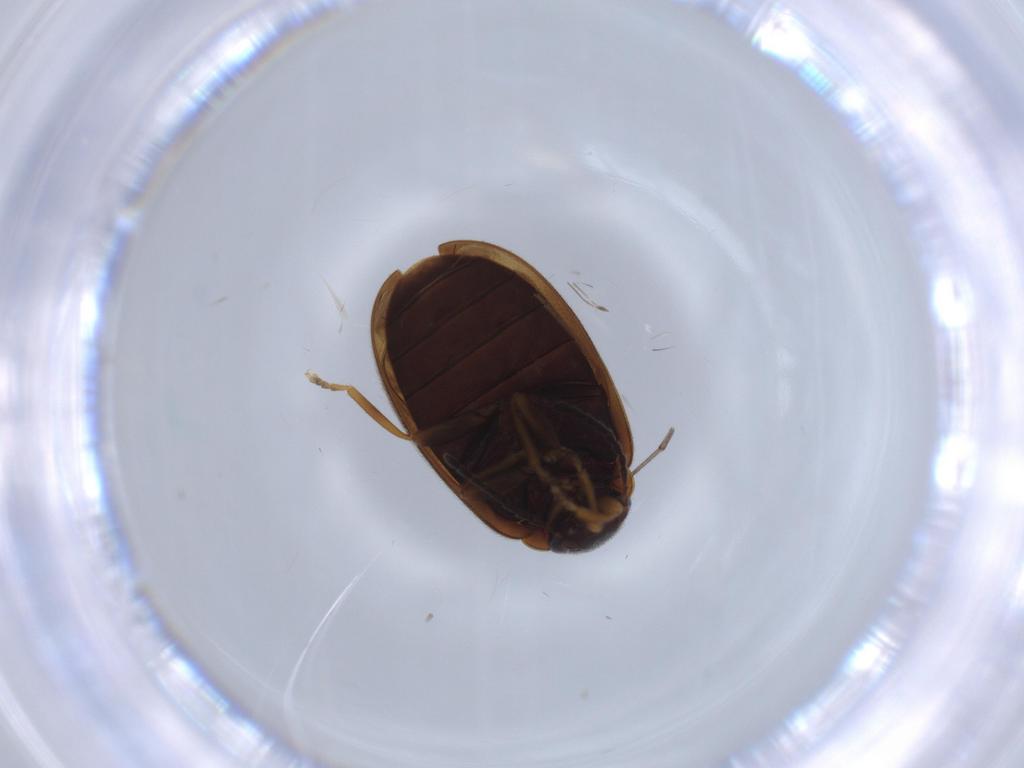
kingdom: Animalia
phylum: Arthropoda
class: Insecta
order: Coleoptera
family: Scirtidae
